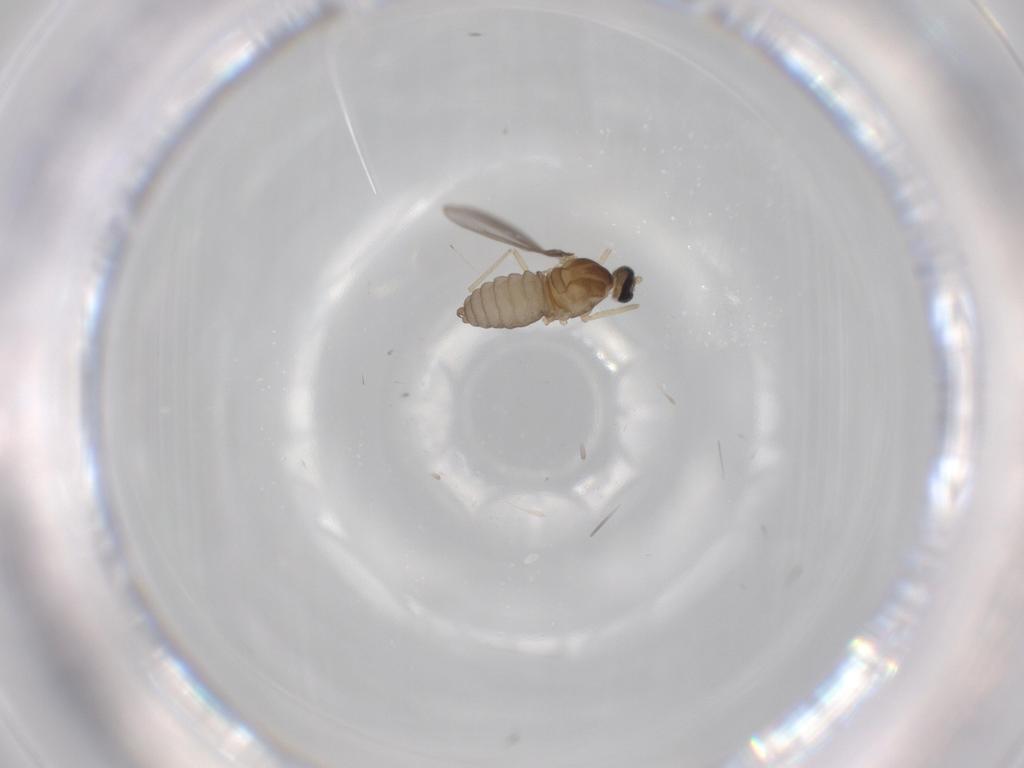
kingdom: Animalia
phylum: Arthropoda
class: Insecta
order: Diptera
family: Cecidomyiidae
